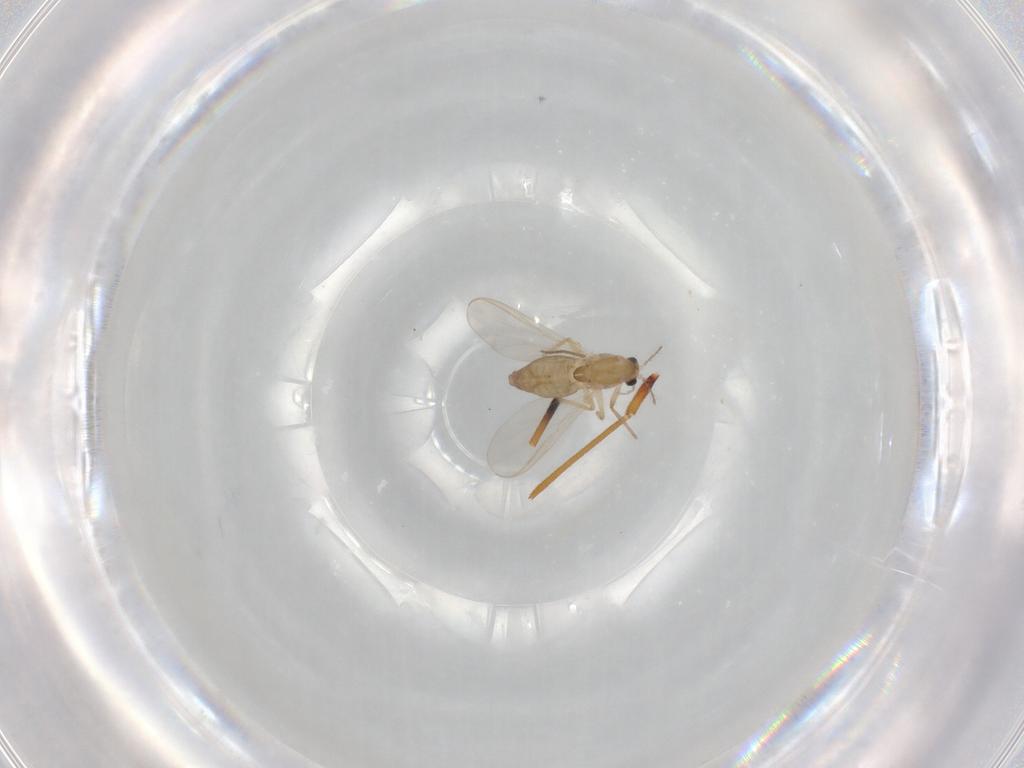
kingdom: Animalia
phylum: Arthropoda
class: Insecta
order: Diptera
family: Chironomidae
